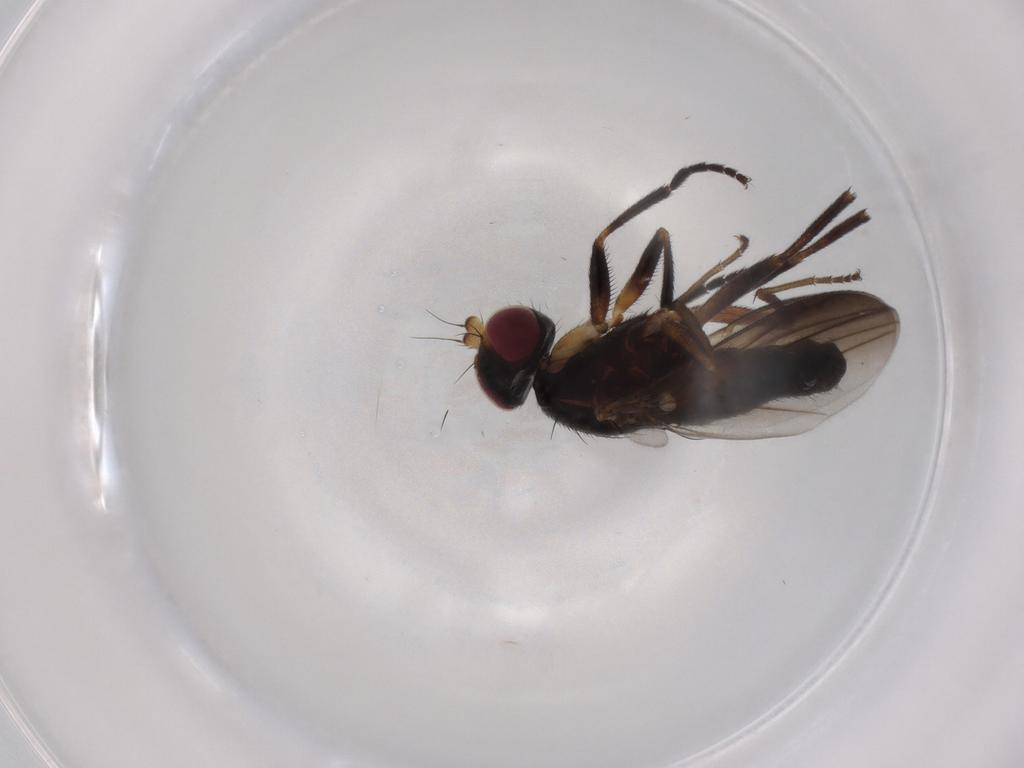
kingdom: Animalia
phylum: Arthropoda
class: Insecta
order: Diptera
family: Clusiidae
